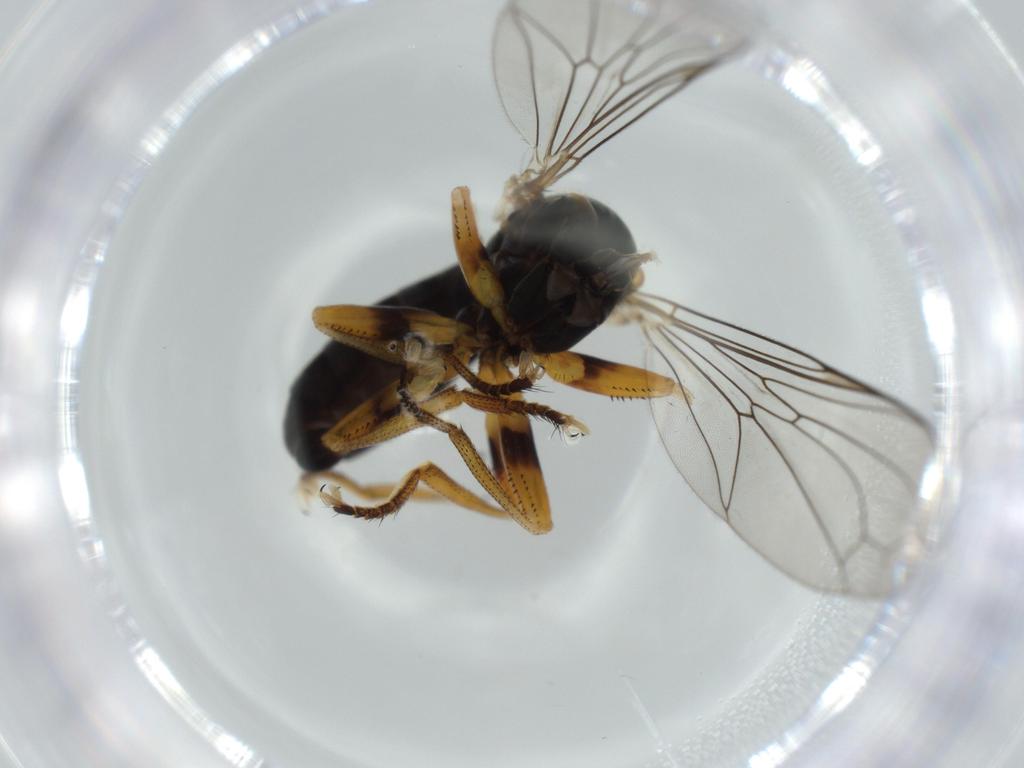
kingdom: Animalia
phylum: Arthropoda
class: Insecta
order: Diptera
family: Pipunculidae
